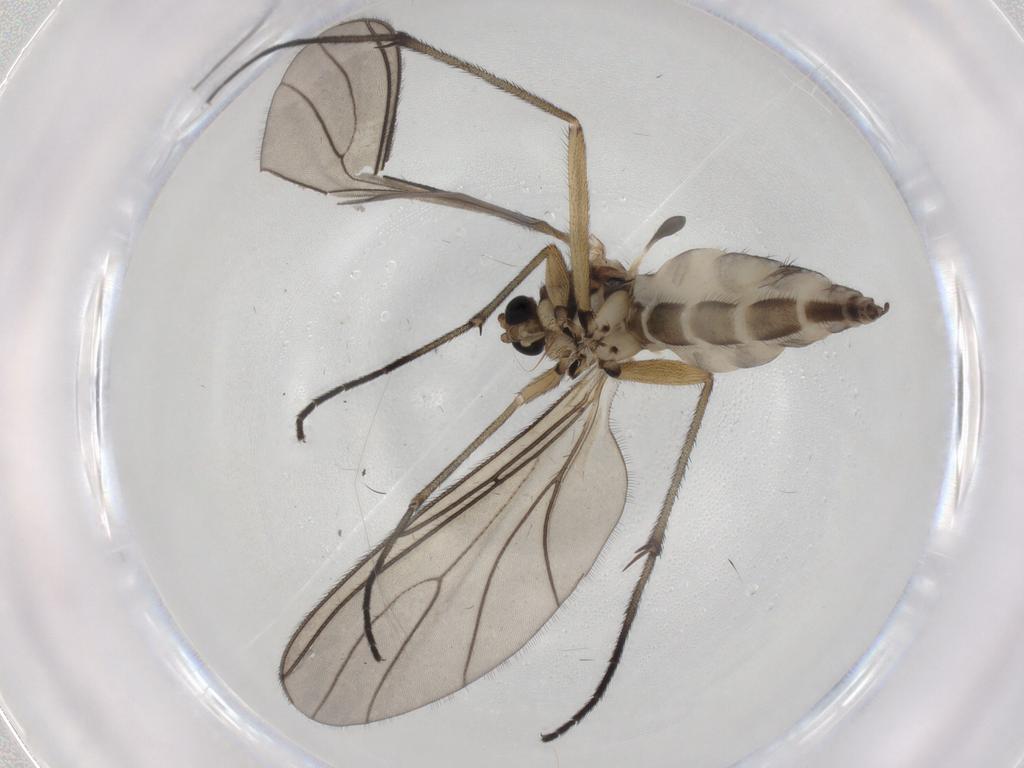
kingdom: Animalia
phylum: Arthropoda
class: Insecta
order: Diptera
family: Sciaridae
